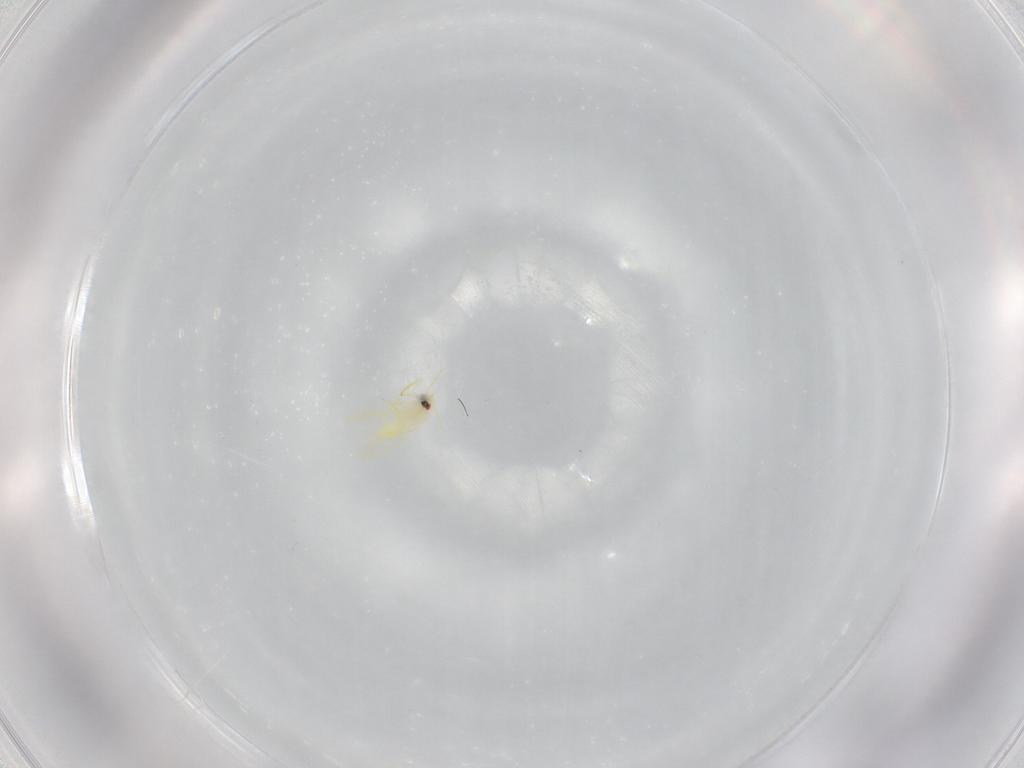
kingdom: Animalia
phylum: Arthropoda
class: Insecta
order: Hemiptera
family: Aleyrodidae
